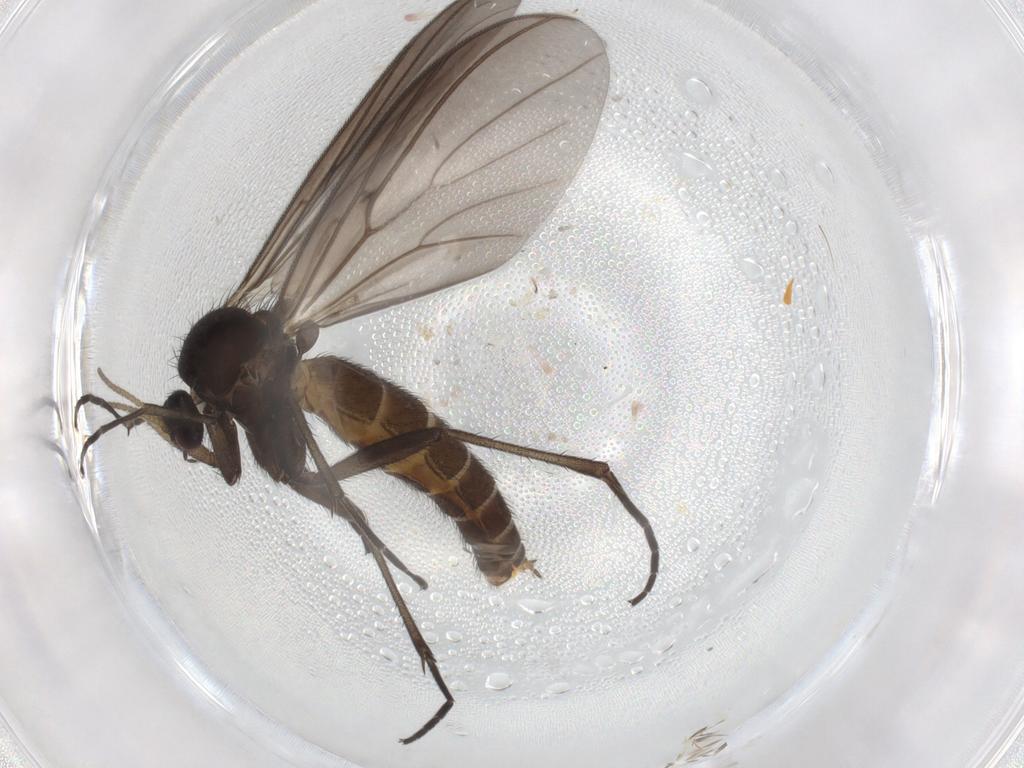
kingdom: Animalia
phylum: Arthropoda
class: Insecta
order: Diptera
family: Mycetophilidae
